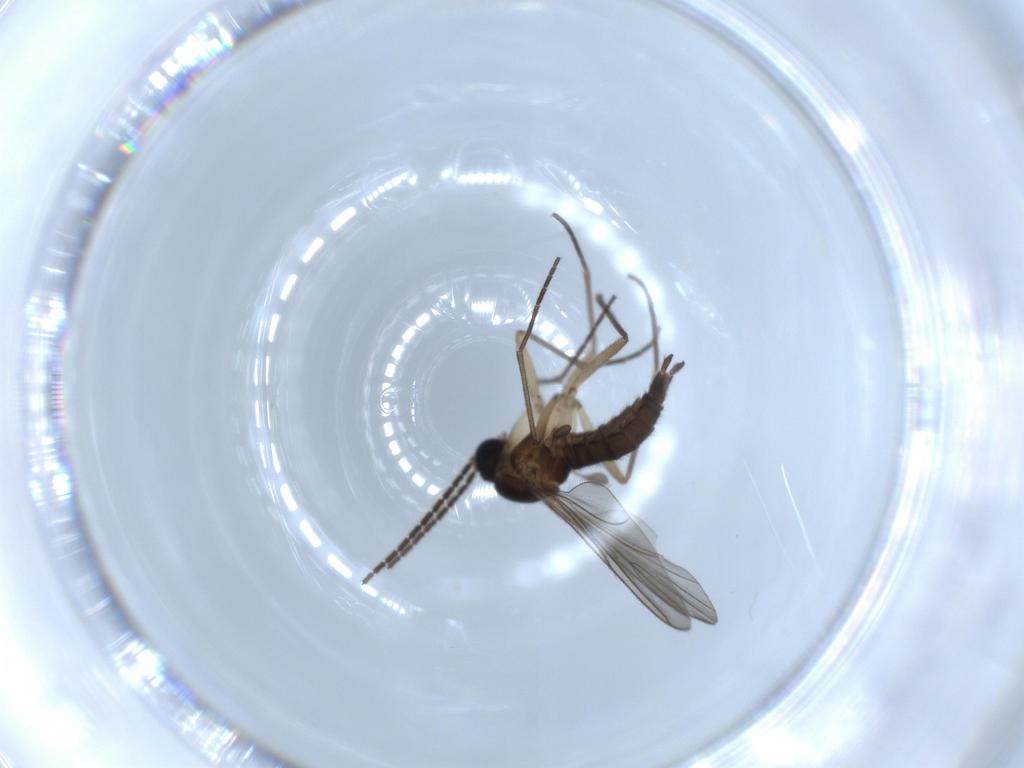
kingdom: Animalia
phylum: Arthropoda
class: Insecta
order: Diptera
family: Sciaridae
